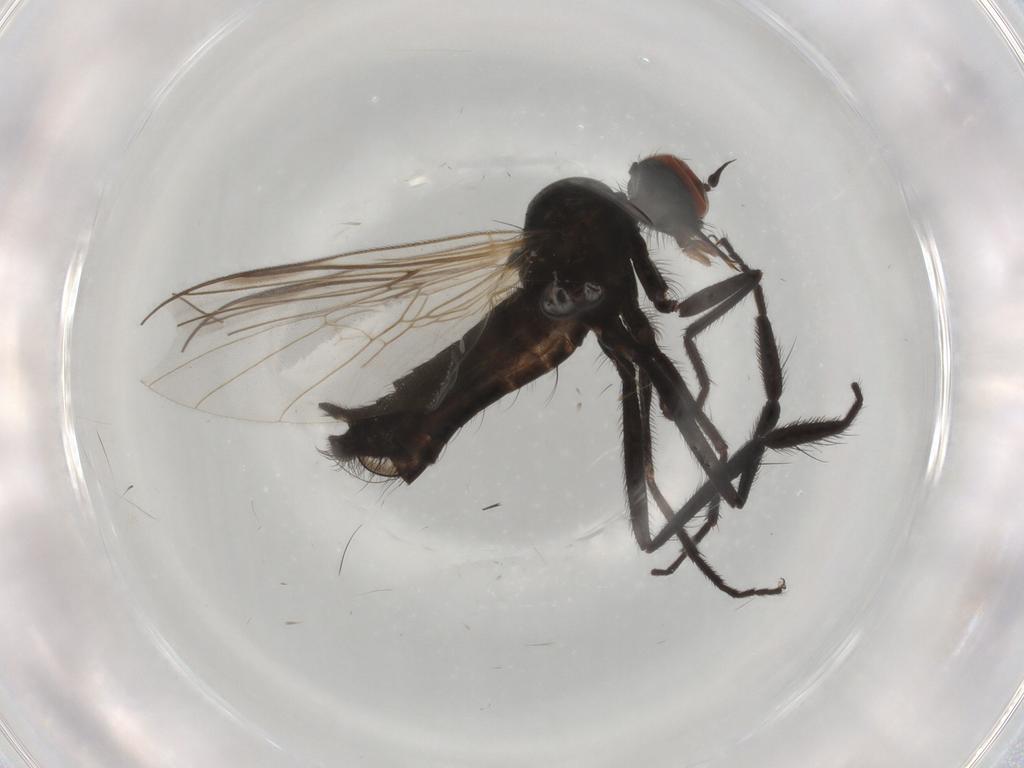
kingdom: Animalia
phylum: Arthropoda
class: Insecta
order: Diptera
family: Empididae
